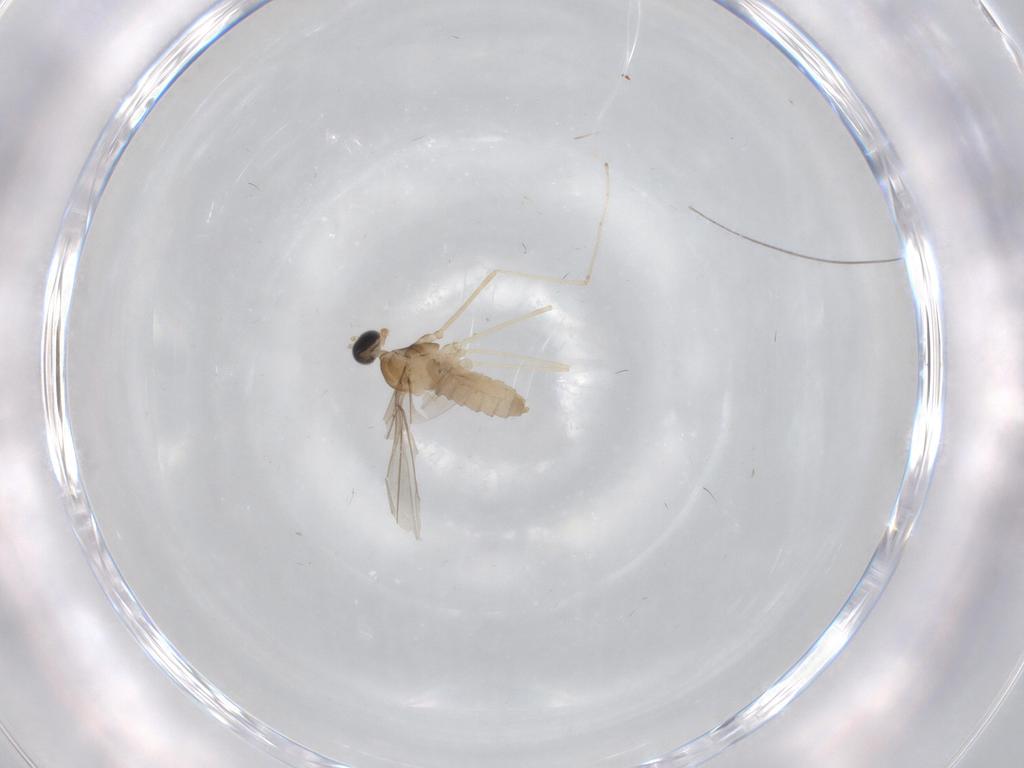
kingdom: Animalia
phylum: Arthropoda
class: Insecta
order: Diptera
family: Cecidomyiidae
